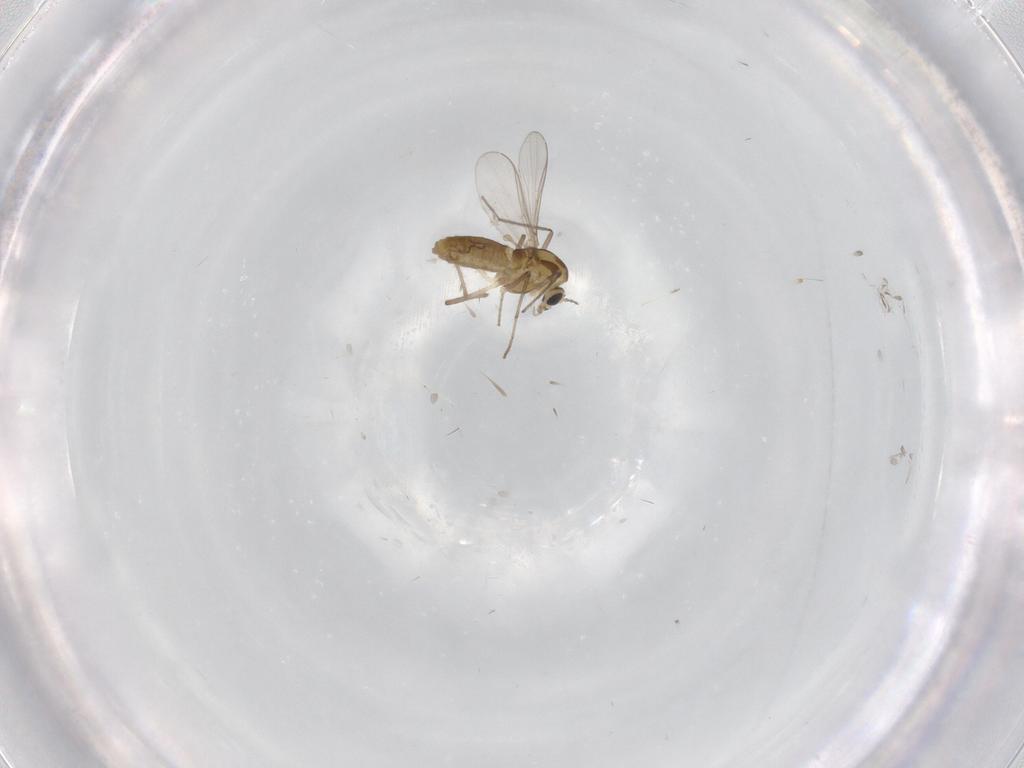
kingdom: Animalia
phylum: Arthropoda
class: Insecta
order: Diptera
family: Chironomidae
